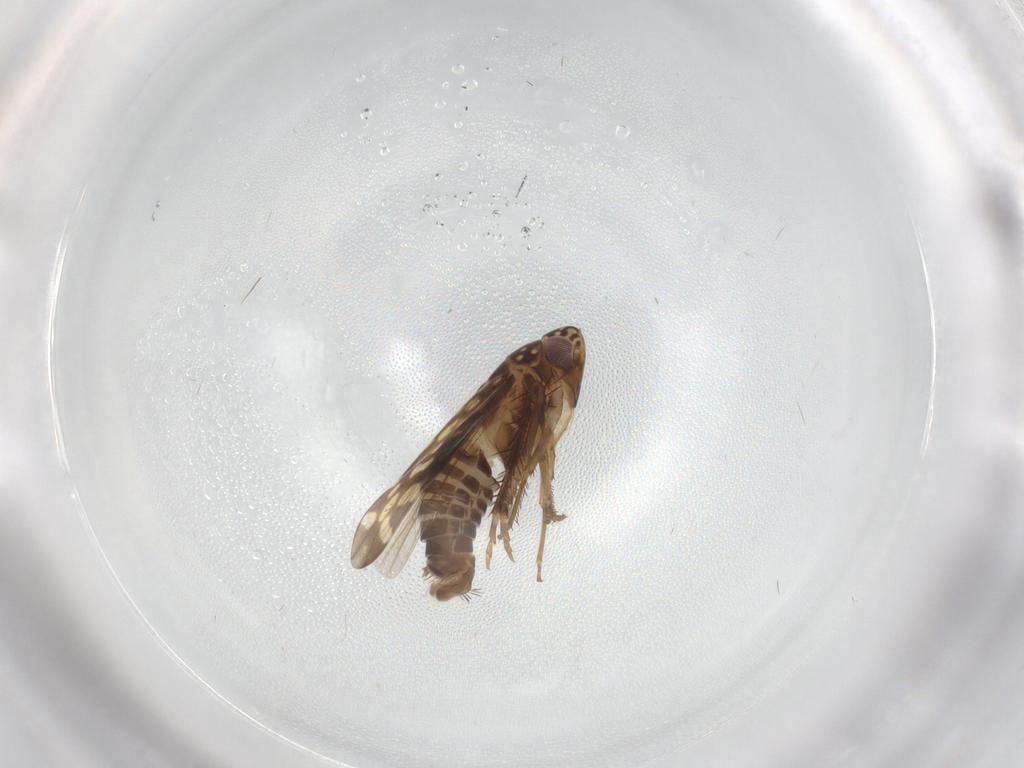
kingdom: Animalia
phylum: Arthropoda
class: Insecta
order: Hemiptera
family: Cicadellidae
